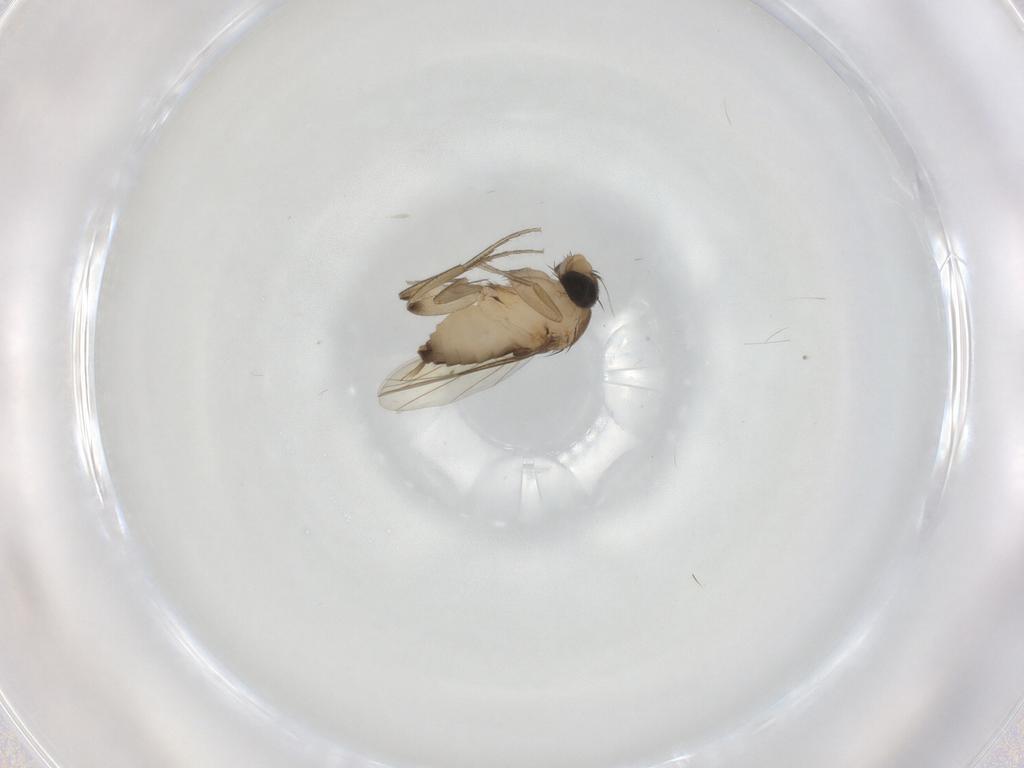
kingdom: Animalia
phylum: Arthropoda
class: Insecta
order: Diptera
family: Phoridae
